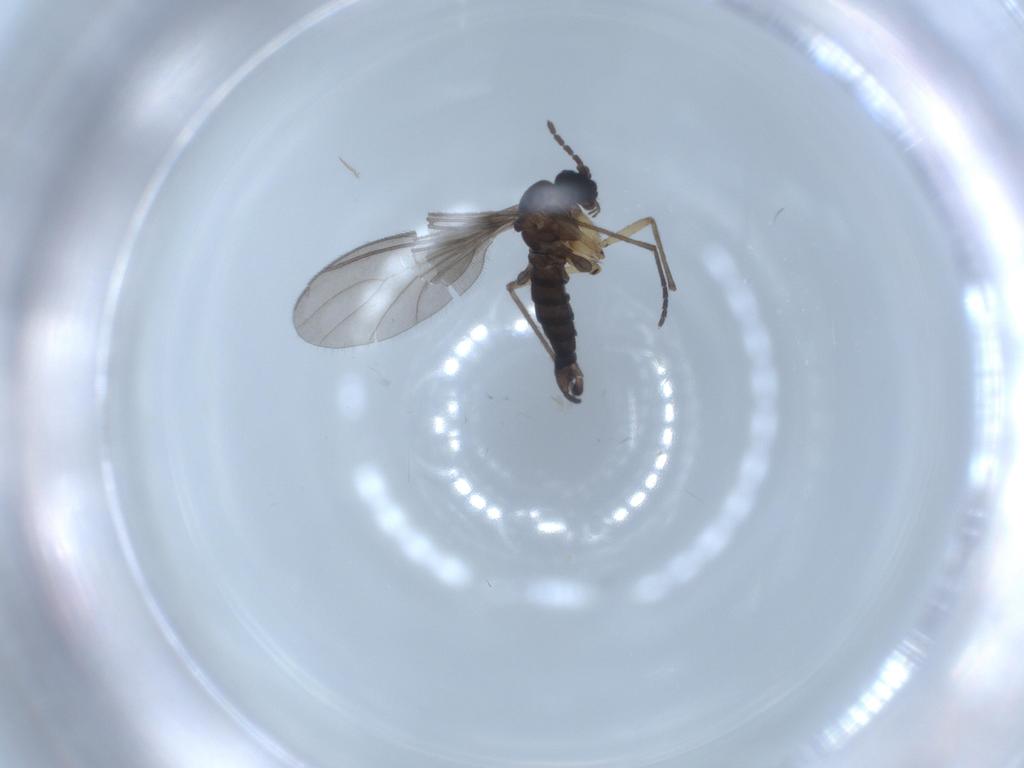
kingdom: Animalia
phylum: Arthropoda
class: Insecta
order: Diptera
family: Sciaridae
